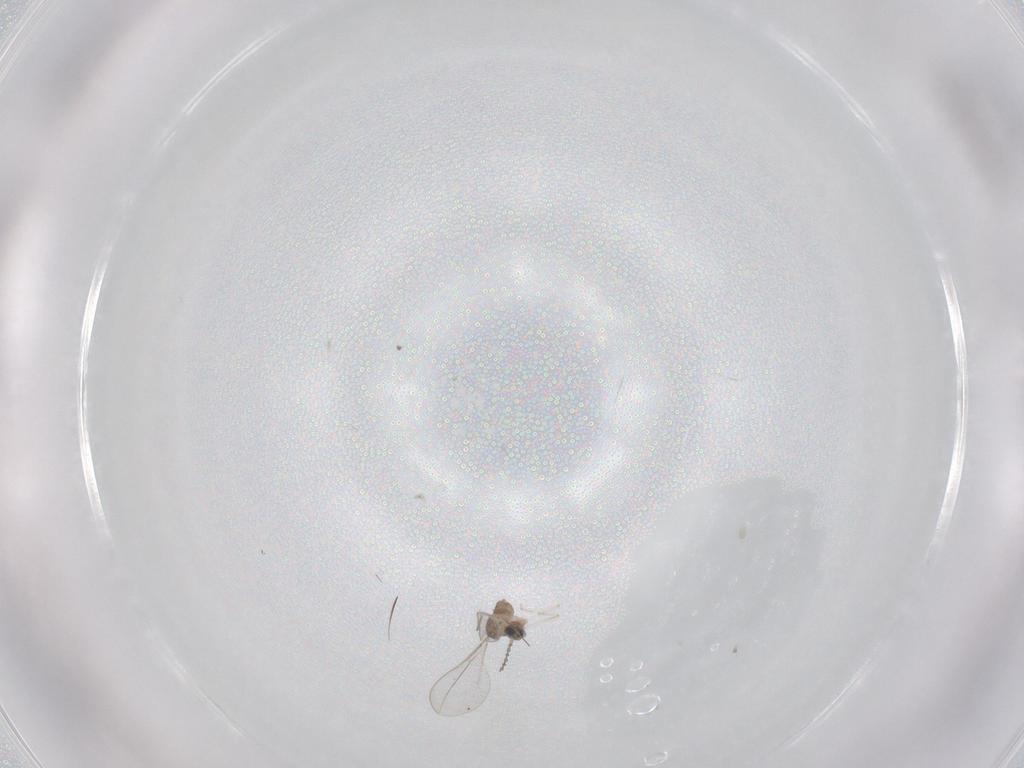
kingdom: Animalia
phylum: Arthropoda
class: Insecta
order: Diptera
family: Cecidomyiidae
